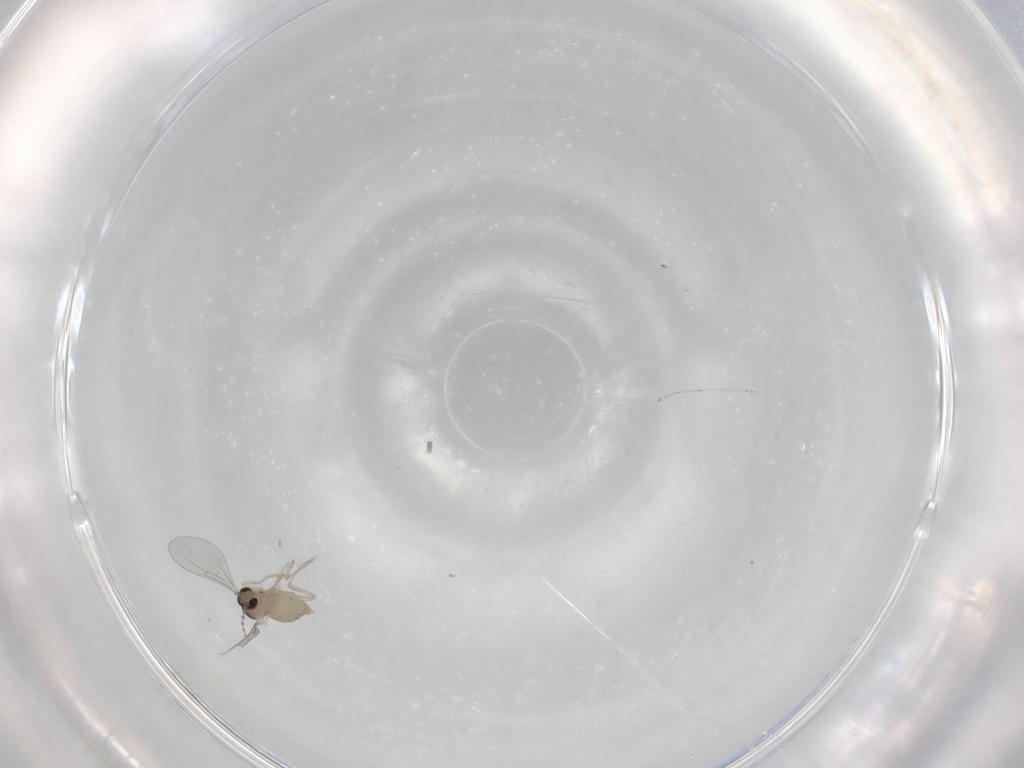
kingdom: Animalia
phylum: Arthropoda
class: Insecta
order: Diptera
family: Cecidomyiidae
